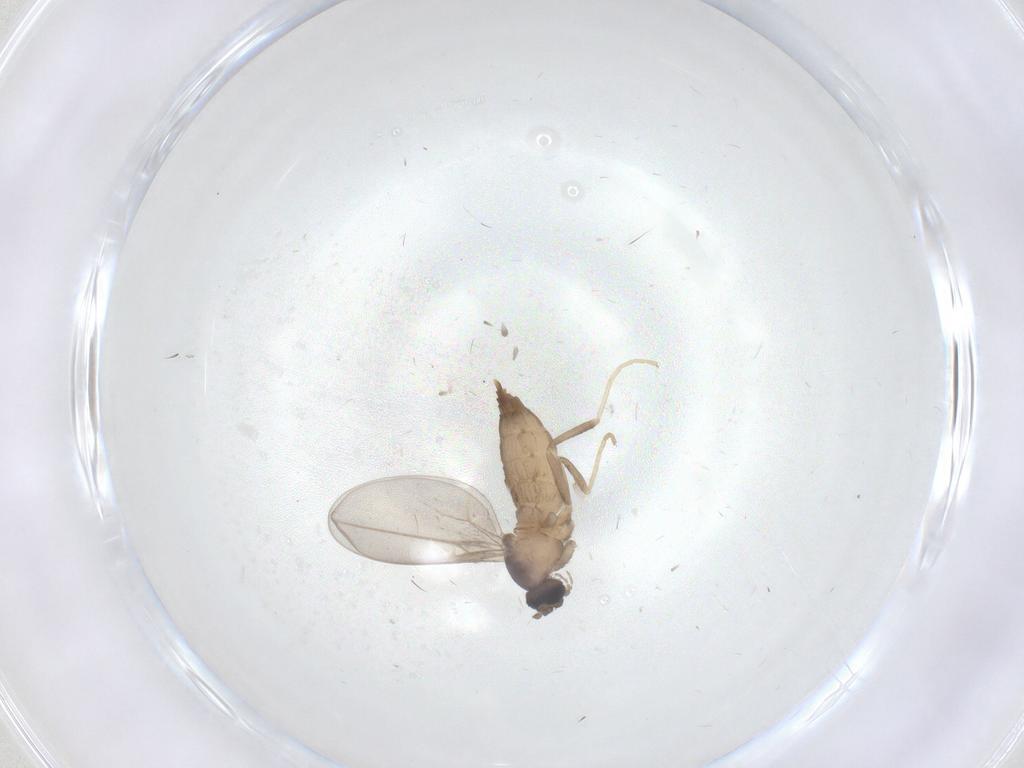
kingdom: Animalia
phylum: Arthropoda
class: Insecta
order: Diptera
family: Cecidomyiidae
